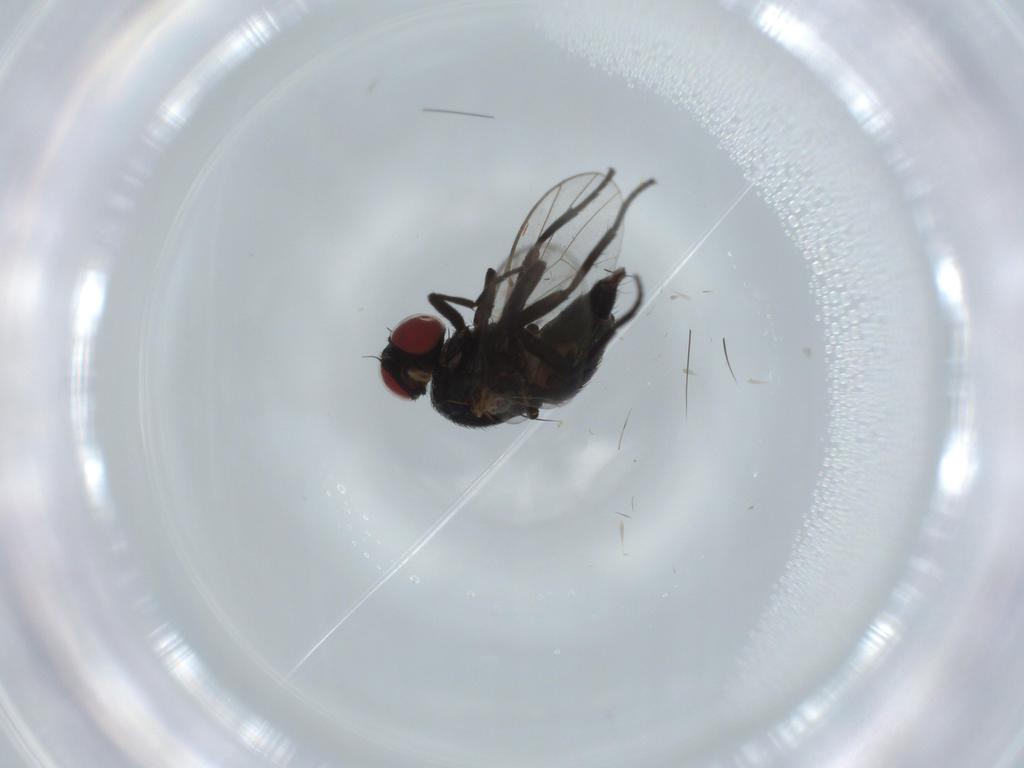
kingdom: Animalia
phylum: Arthropoda
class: Insecta
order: Diptera
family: Agromyzidae
